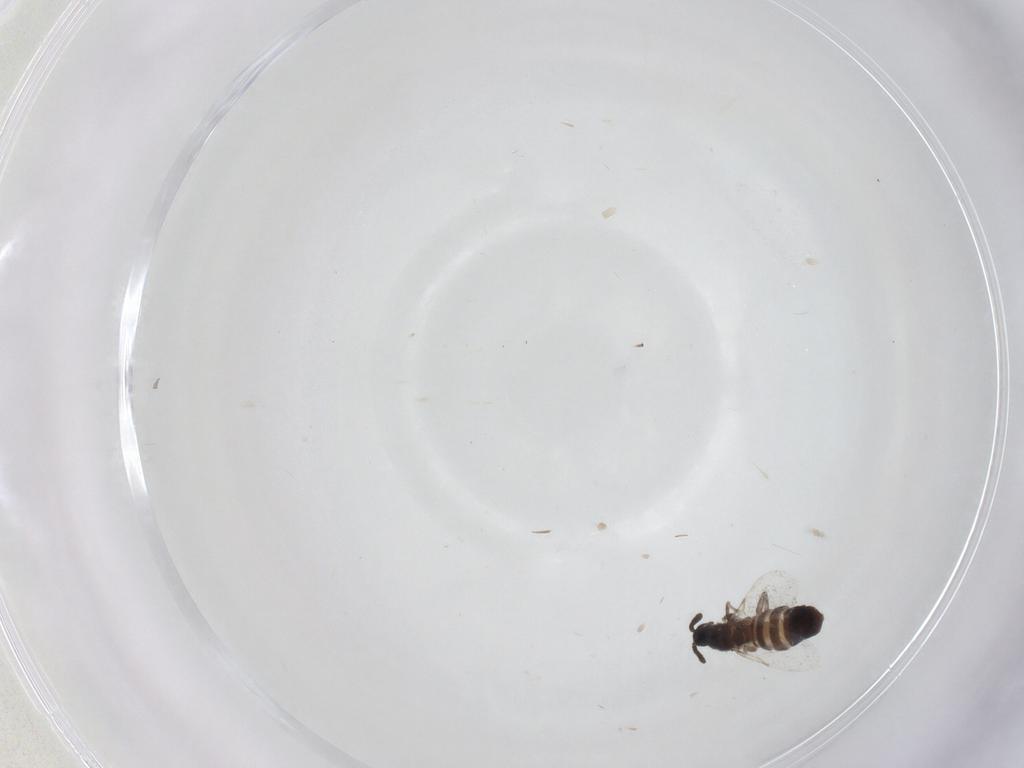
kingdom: Animalia
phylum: Arthropoda
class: Insecta
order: Diptera
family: Scatopsidae
